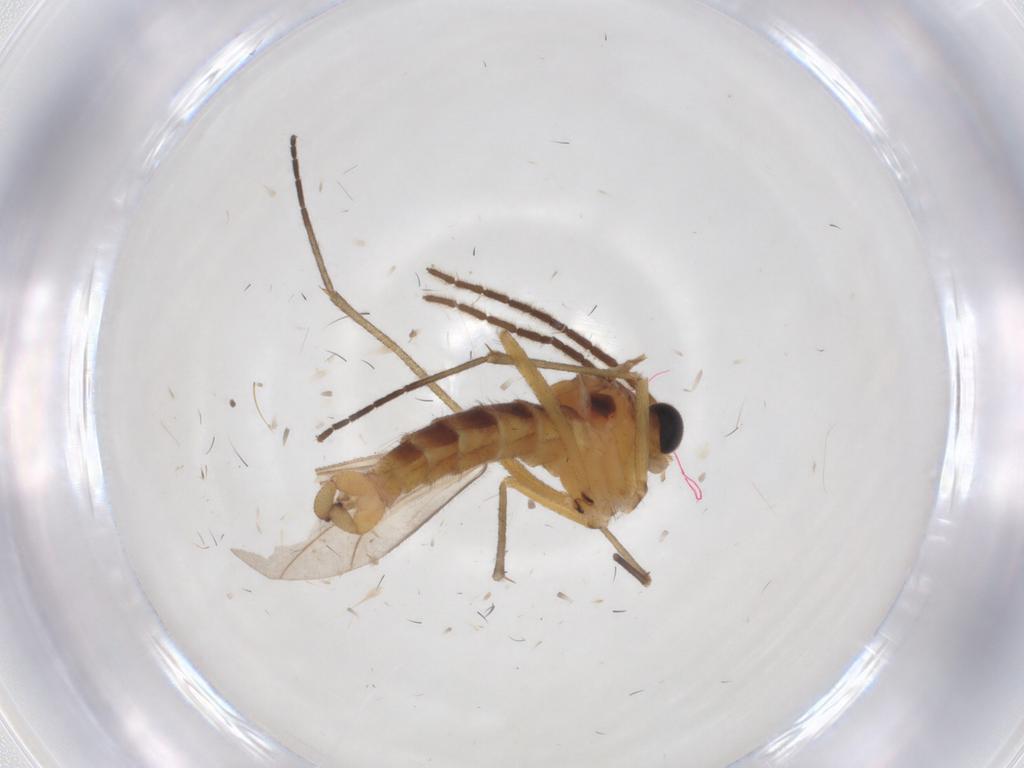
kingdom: Animalia
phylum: Arthropoda
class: Insecta
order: Diptera
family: Sciaridae
